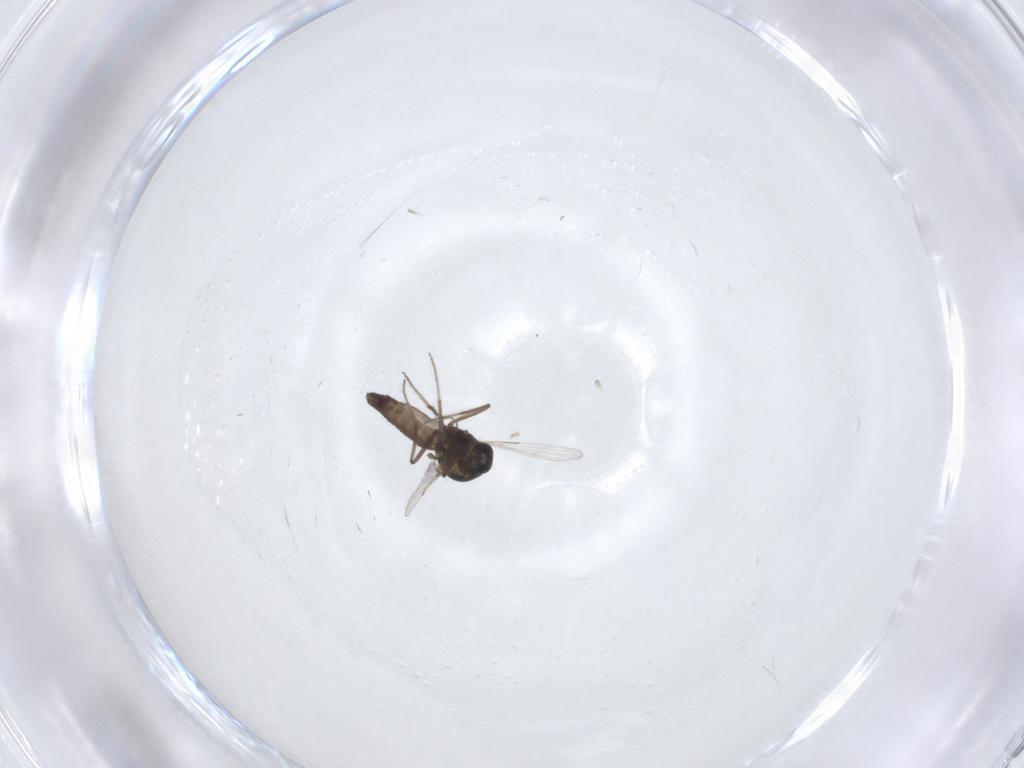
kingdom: Animalia
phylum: Arthropoda
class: Insecta
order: Diptera
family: Ceratopogonidae
